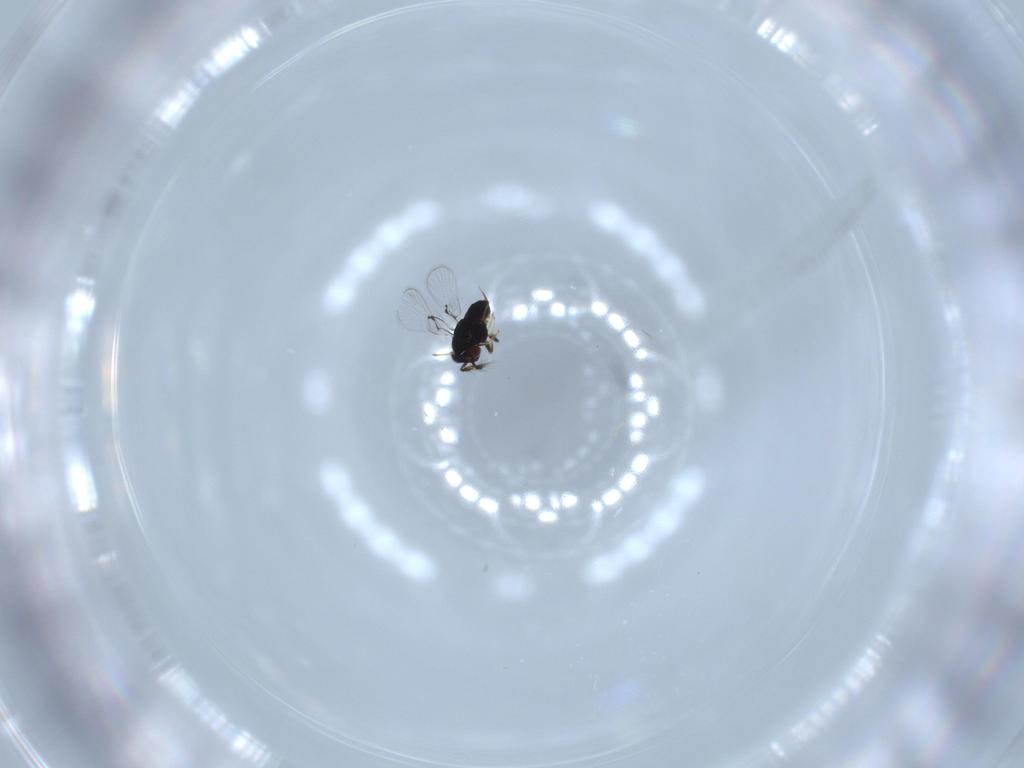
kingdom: Animalia
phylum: Arthropoda
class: Insecta
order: Hymenoptera
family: Trichogrammatidae
